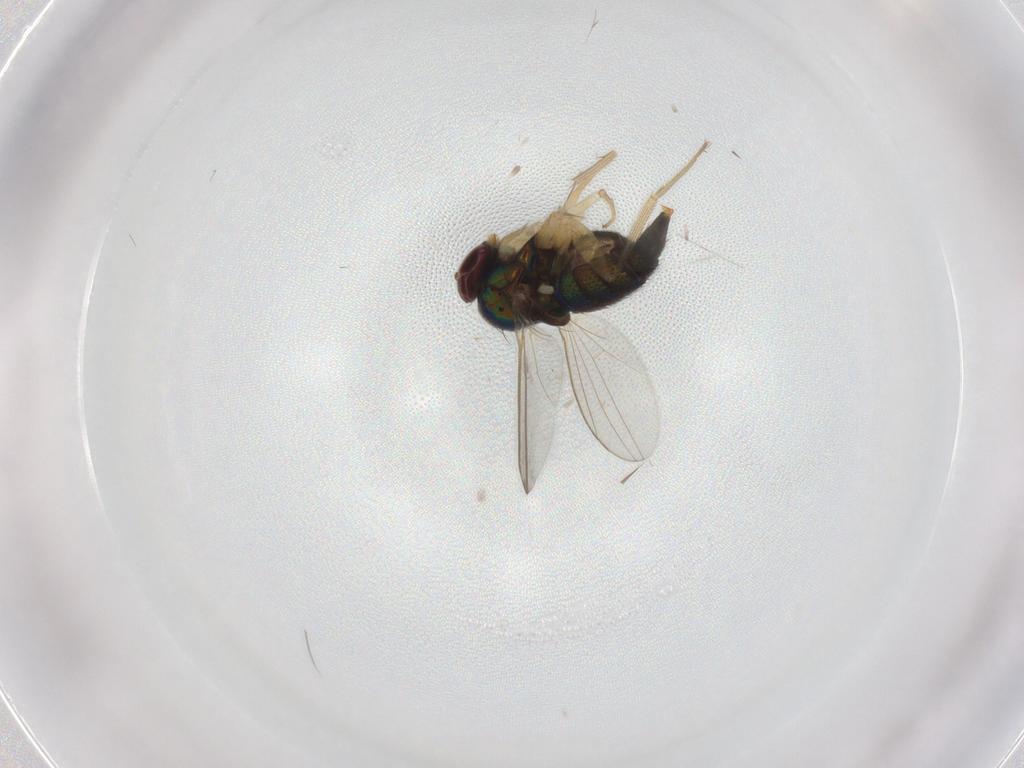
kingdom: Animalia
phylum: Arthropoda
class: Insecta
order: Diptera
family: Dolichopodidae
